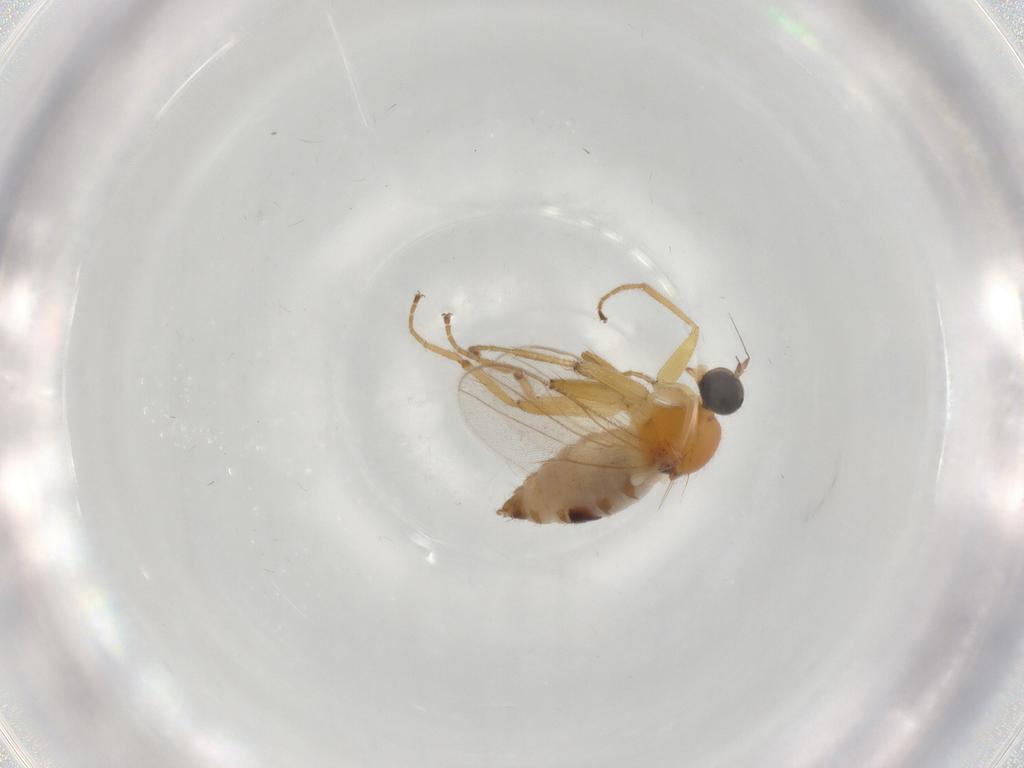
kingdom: Animalia
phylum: Arthropoda
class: Insecta
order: Diptera
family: Hybotidae
